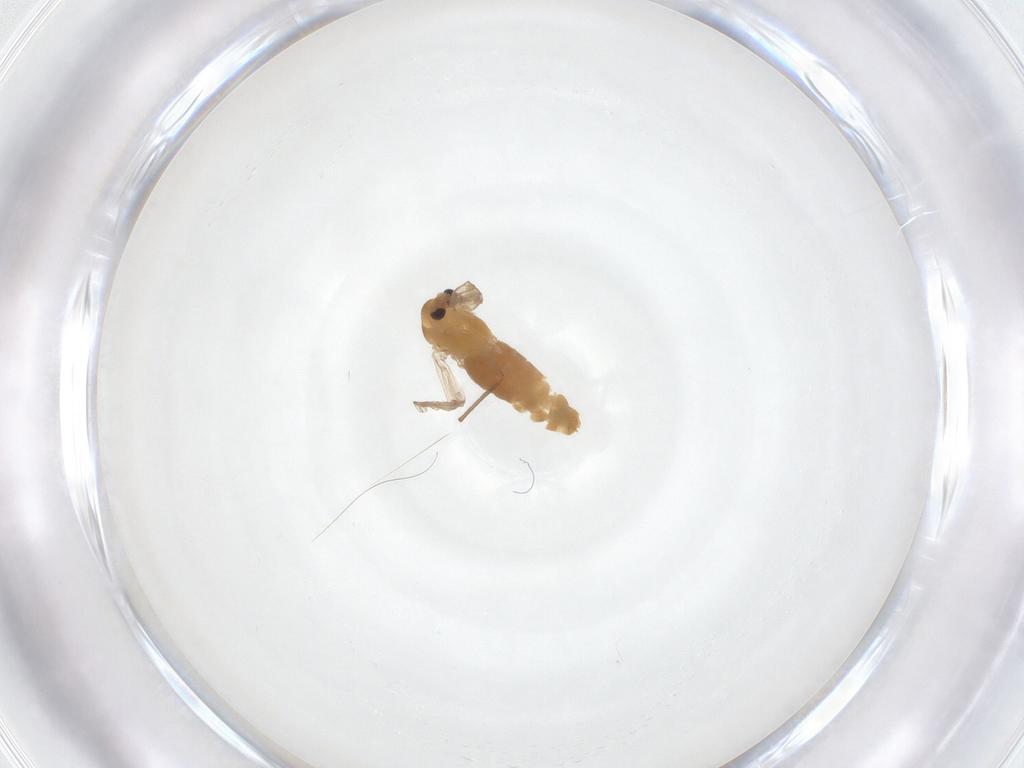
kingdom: Animalia
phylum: Arthropoda
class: Insecta
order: Diptera
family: Chironomidae
